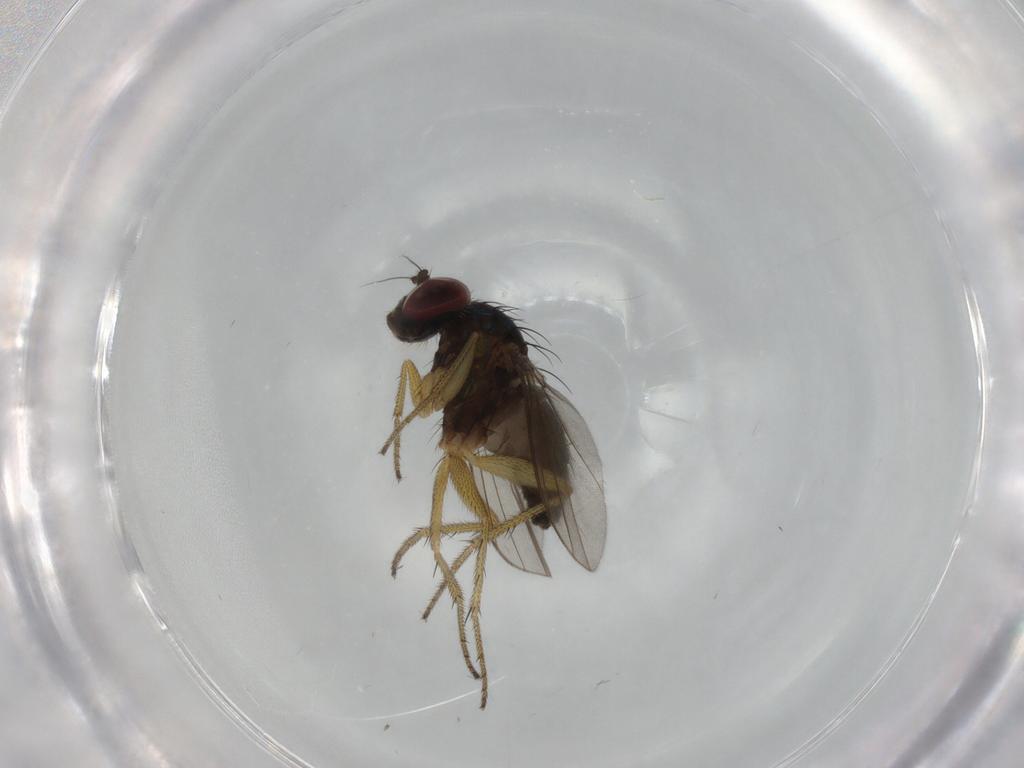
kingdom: Animalia
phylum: Arthropoda
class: Insecta
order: Diptera
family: Dolichopodidae
